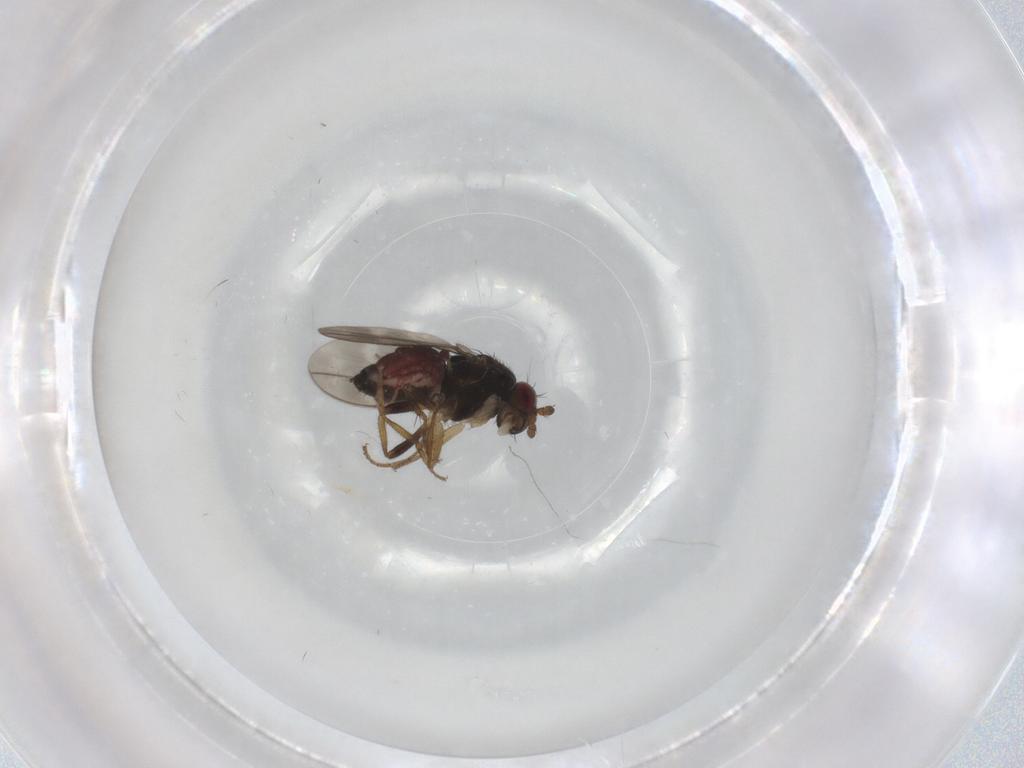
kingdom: Animalia
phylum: Arthropoda
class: Insecta
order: Diptera
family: Sphaeroceridae
